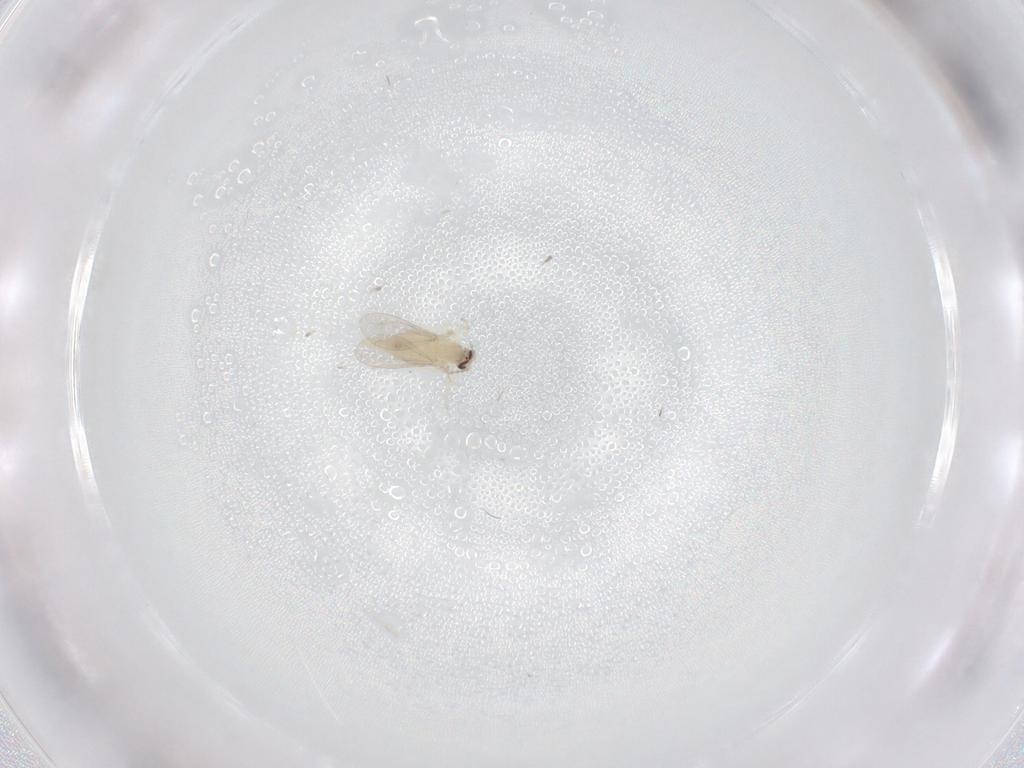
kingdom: Animalia
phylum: Arthropoda
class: Insecta
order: Diptera
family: Cecidomyiidae
